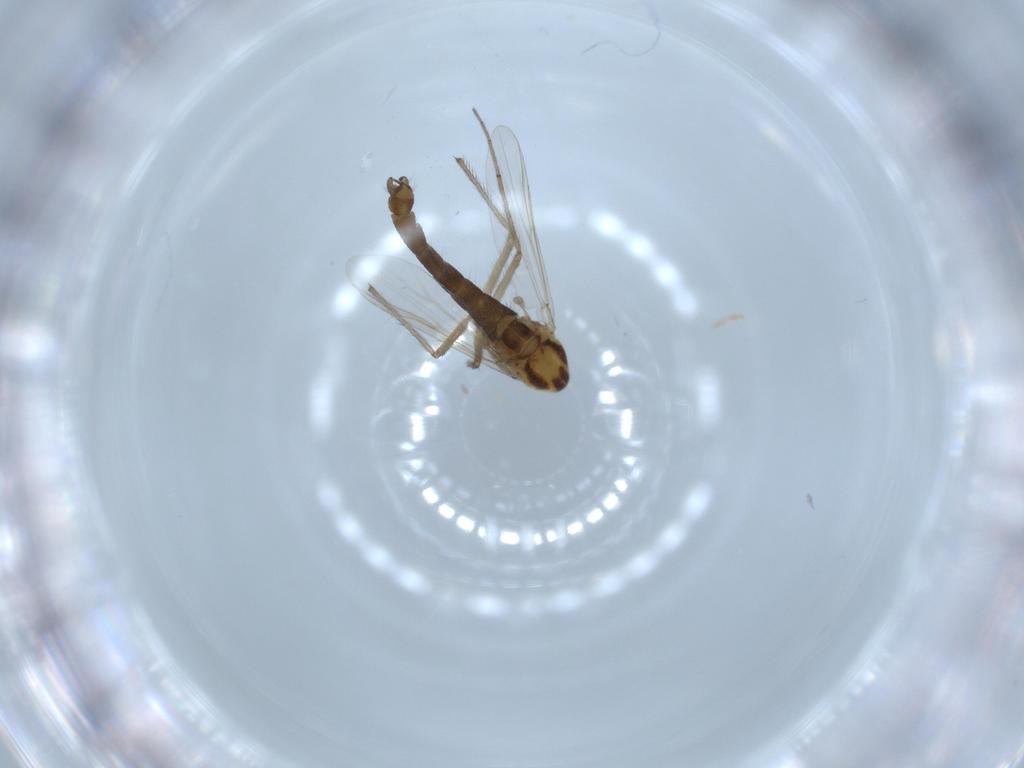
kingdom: Animalia
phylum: Arthropoda
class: Insecta
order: Diptera
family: Chironomidae
